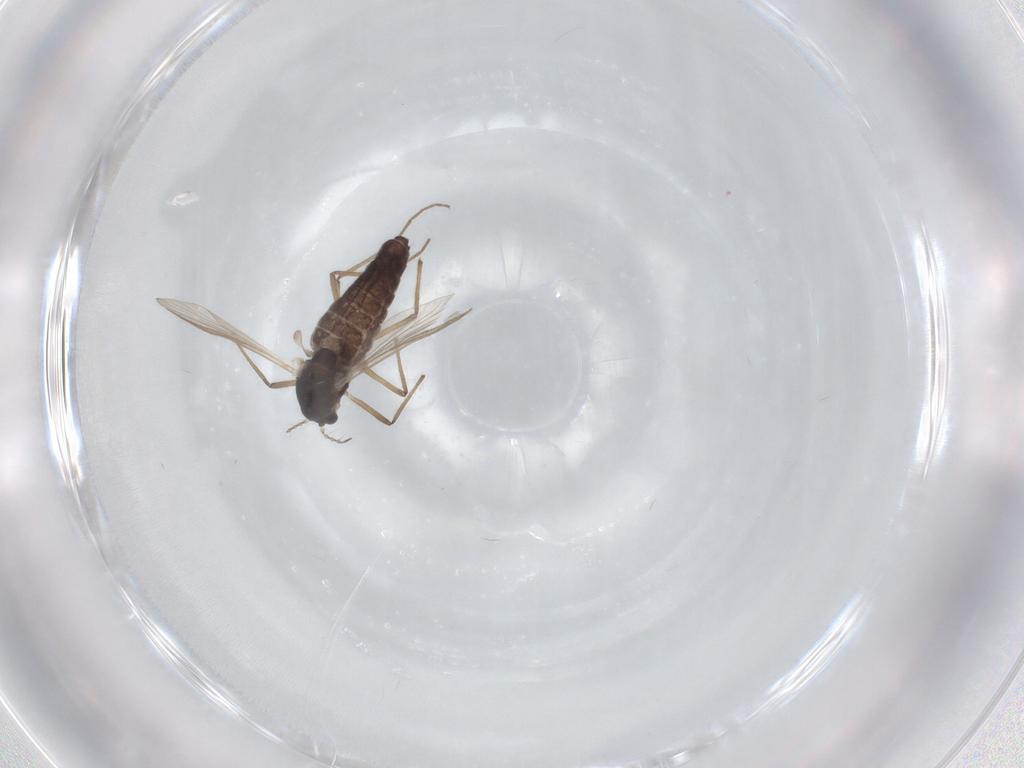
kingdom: Animalia
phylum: Arthropoda
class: Insecta
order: Diptera
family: Chironomidae
